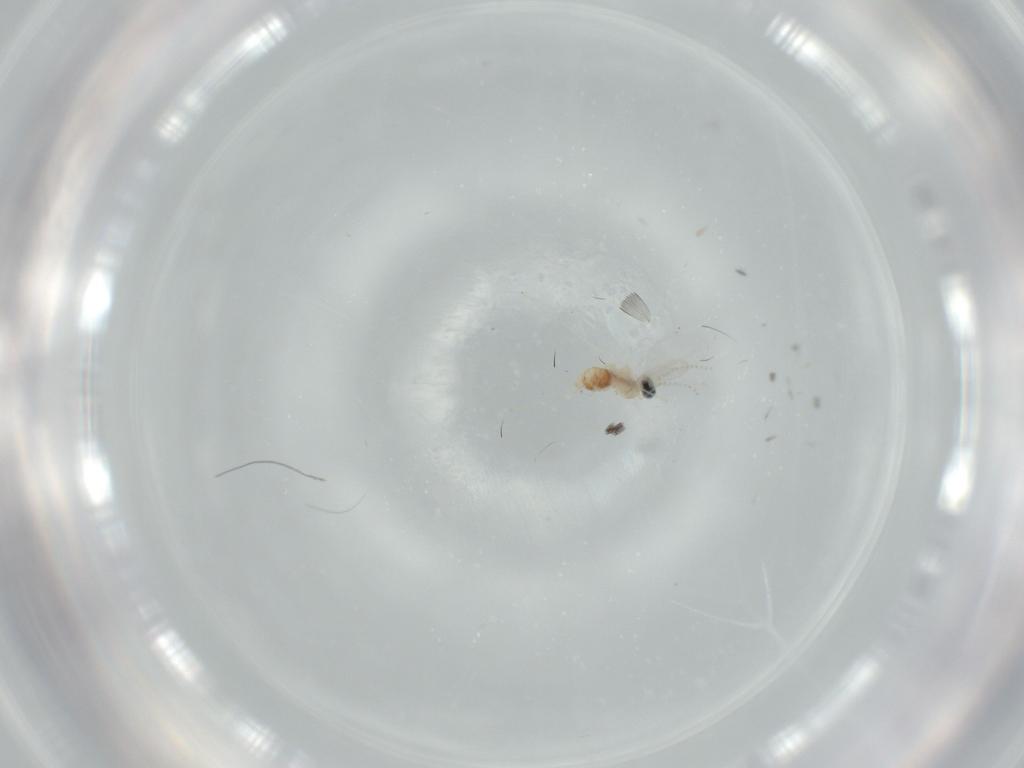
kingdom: Animalia
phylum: Arthropoda
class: Insecta
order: Diptera
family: Cecidomyiidae
